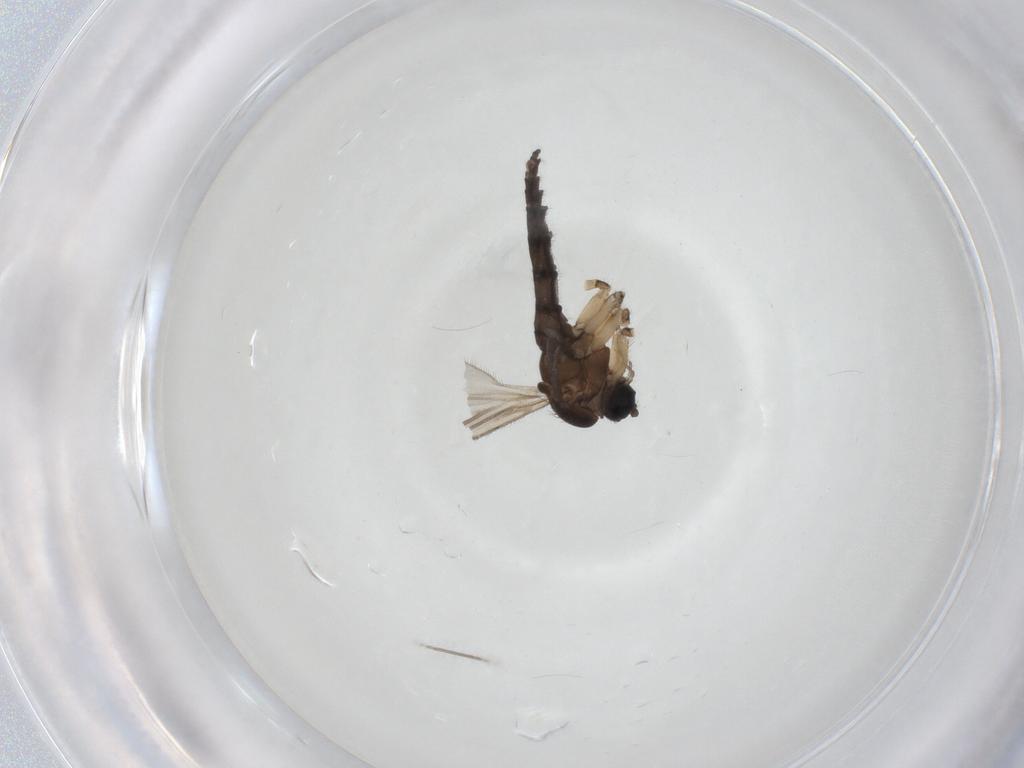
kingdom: Animalia
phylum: Arthropoda
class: Insecta
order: Diptera
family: Sciaridae
